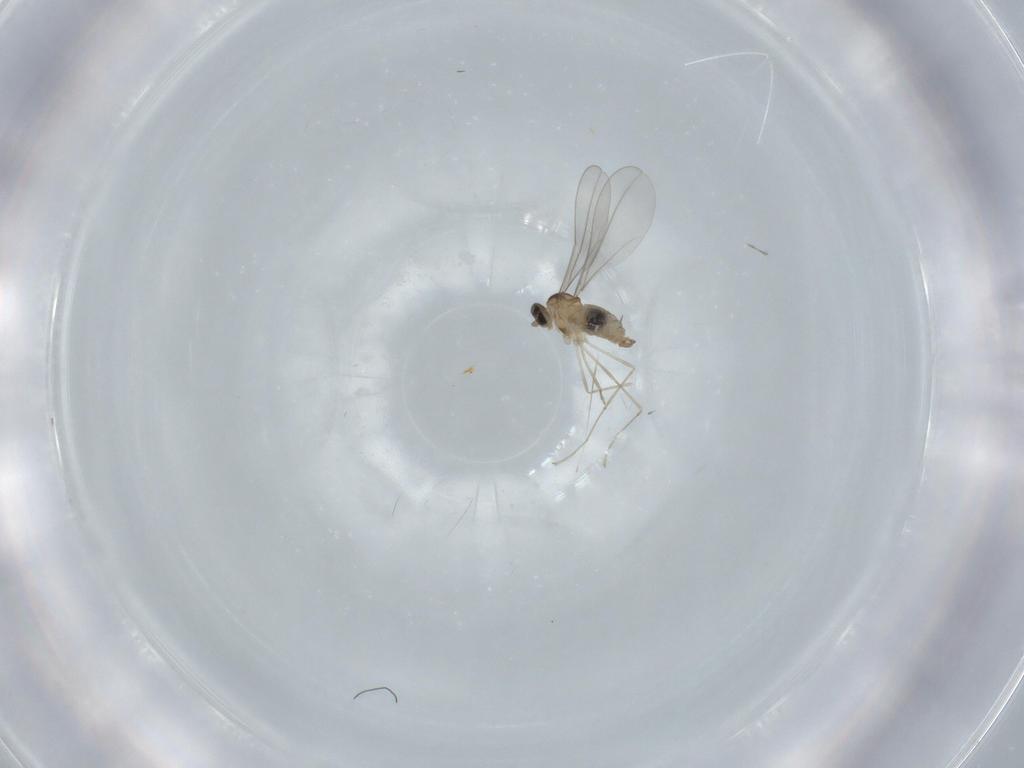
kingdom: Animalia
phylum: Arthropoda
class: Insecta
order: Diptera
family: Cecidomyiidae
